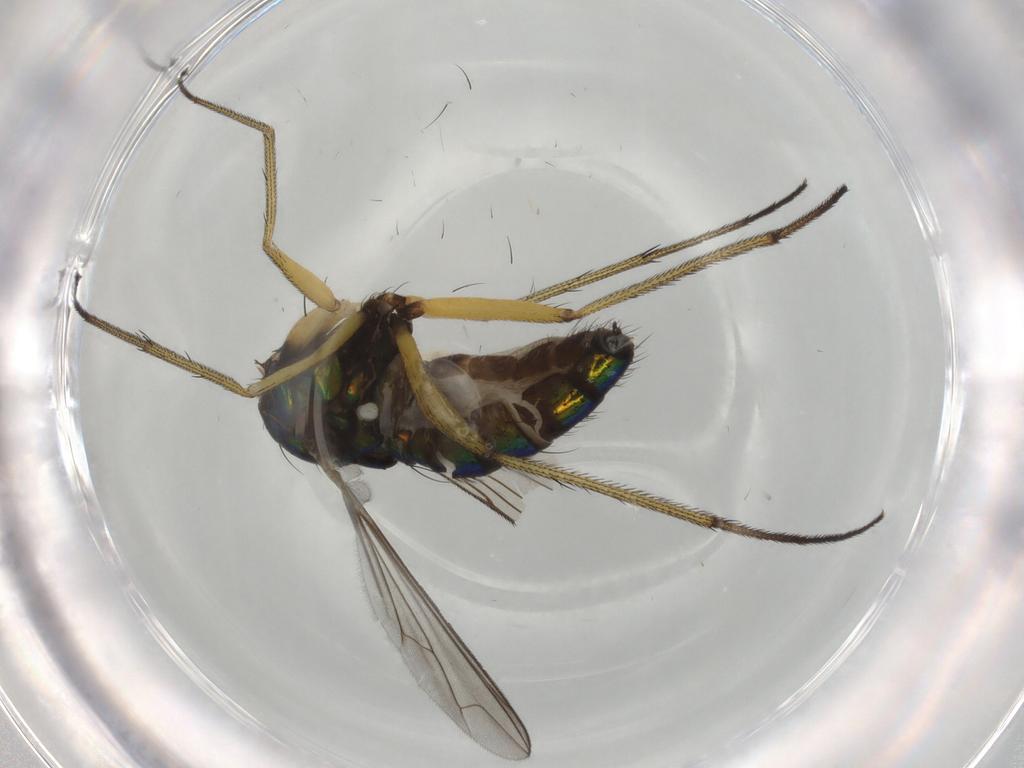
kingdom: Animalia
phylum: Arthropoda
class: Insecta
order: Diptera
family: Dolichopodidae
